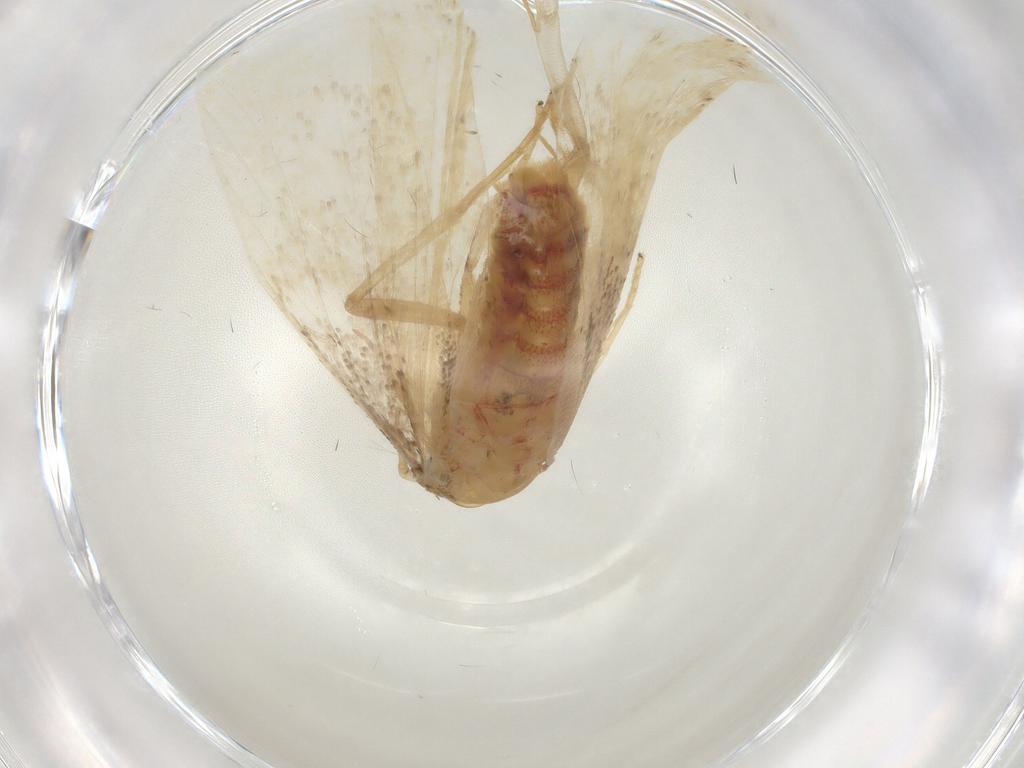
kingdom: Animalia
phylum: Arthropoda
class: Insecta
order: Lepidoptera
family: Lecithoceridae
